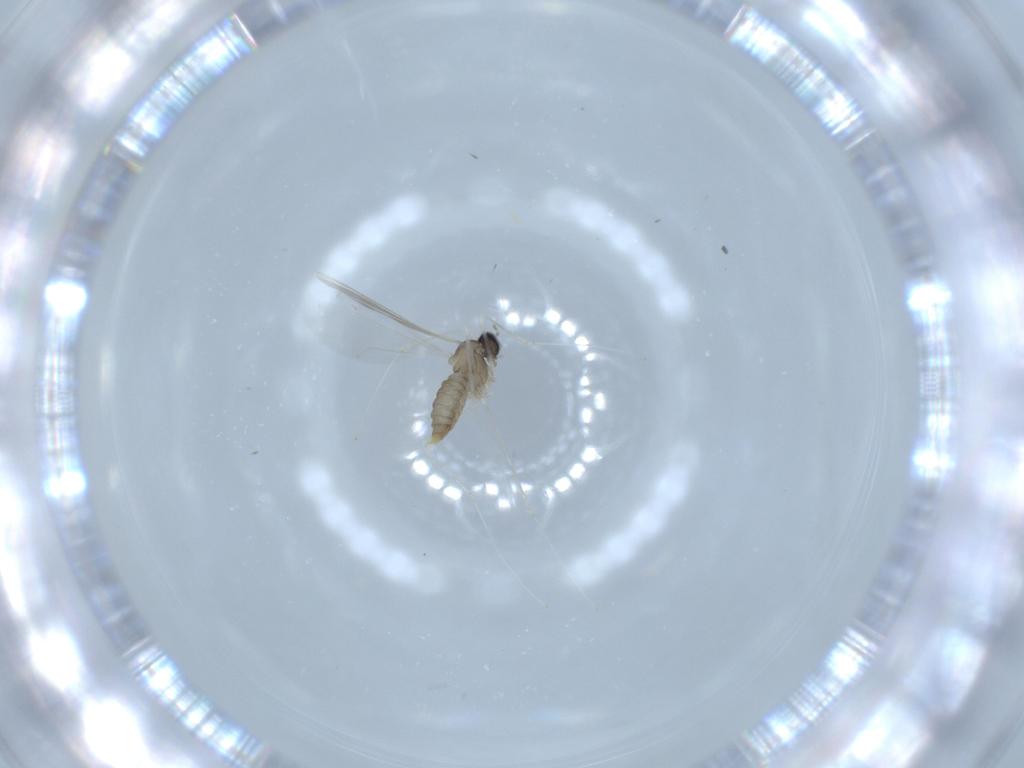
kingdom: Animalia
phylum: Arthropoda
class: Insecta
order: Diptera
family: Cecidomyiidae
